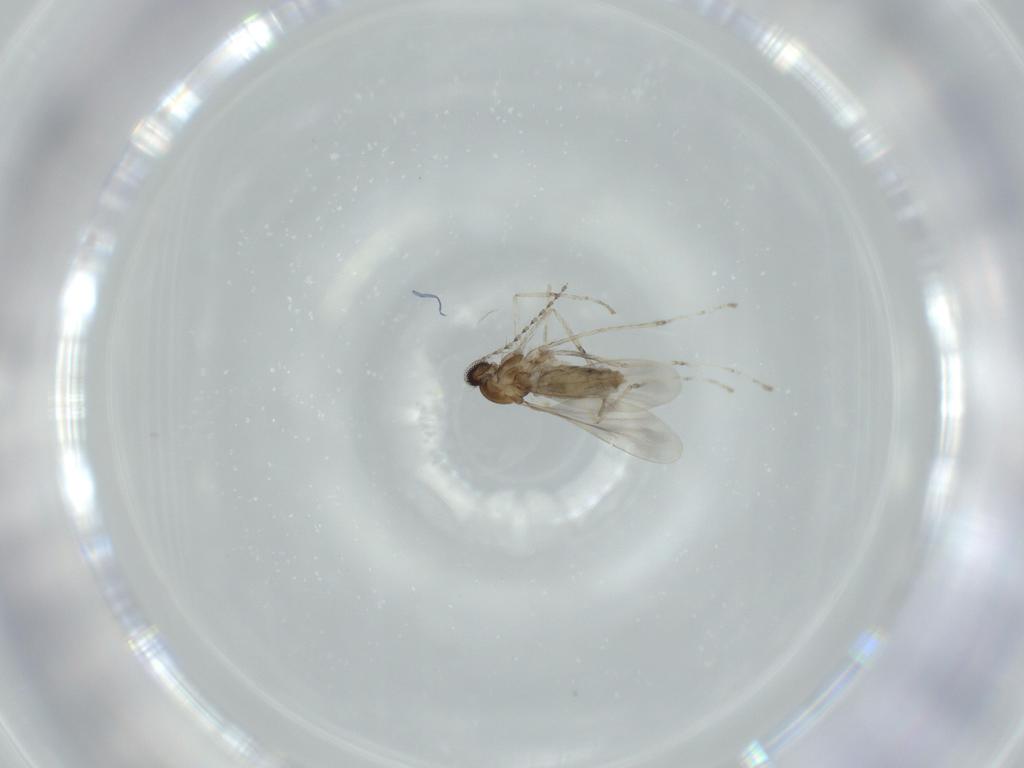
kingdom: Animalia
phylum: Arthropoda
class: Insecta
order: Diptera
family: Cecidomyiidae
